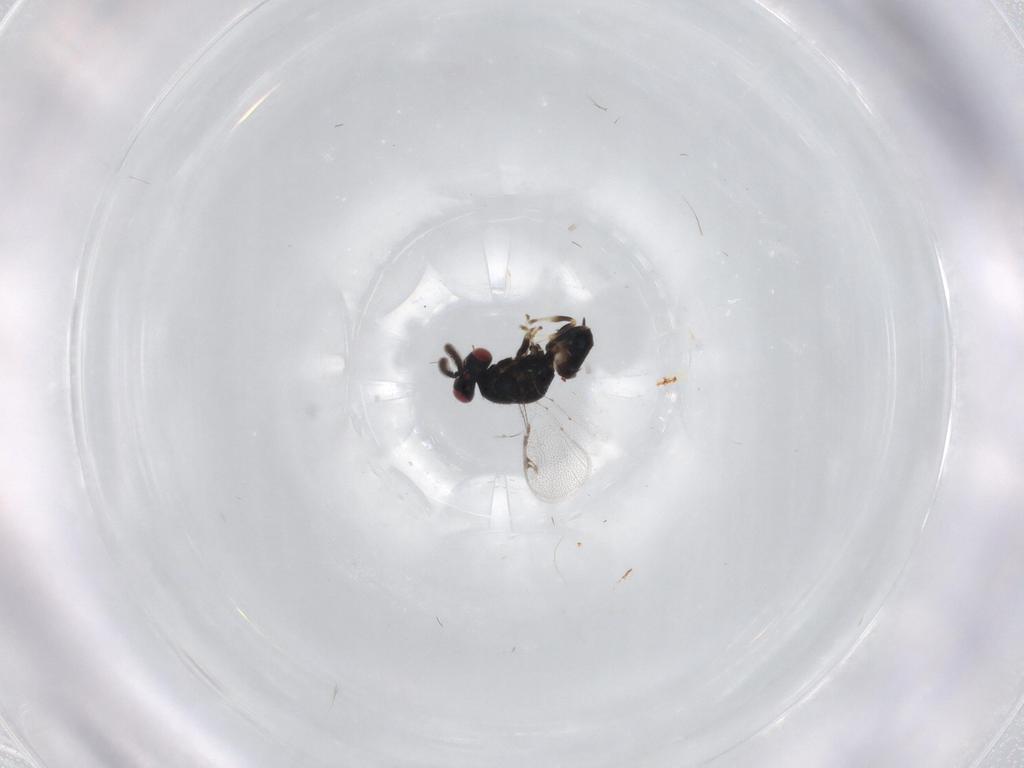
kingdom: Animalia
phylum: Arthropoda
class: Insecta
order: Hymenoptera
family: Pteromalidae
